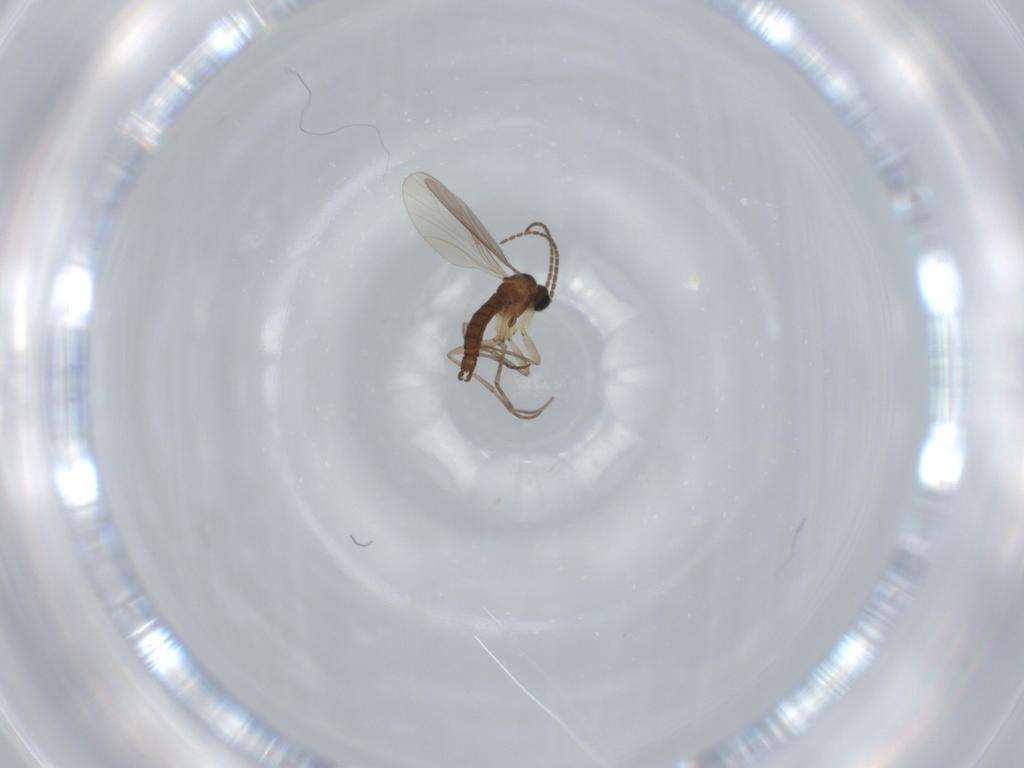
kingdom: Animalia
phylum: Arthropoda
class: Insecta
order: Diptera
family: Sciaridae
